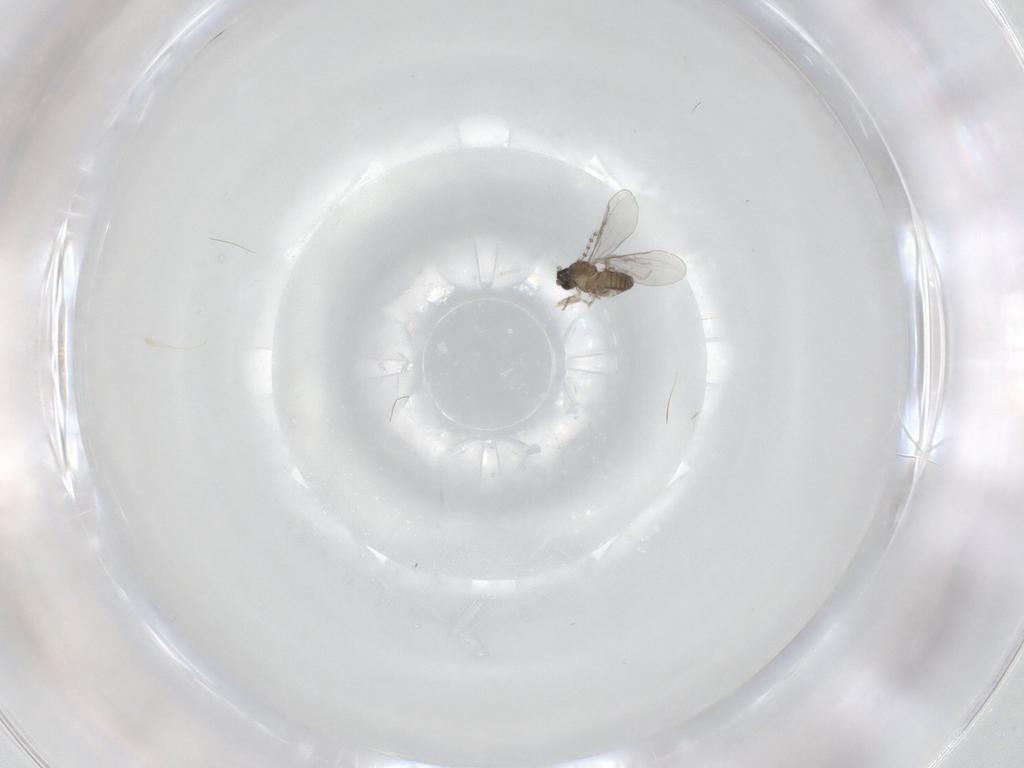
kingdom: Animalia
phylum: Arthropoda
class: Insecta
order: Diptera
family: Cecidomyiidae
